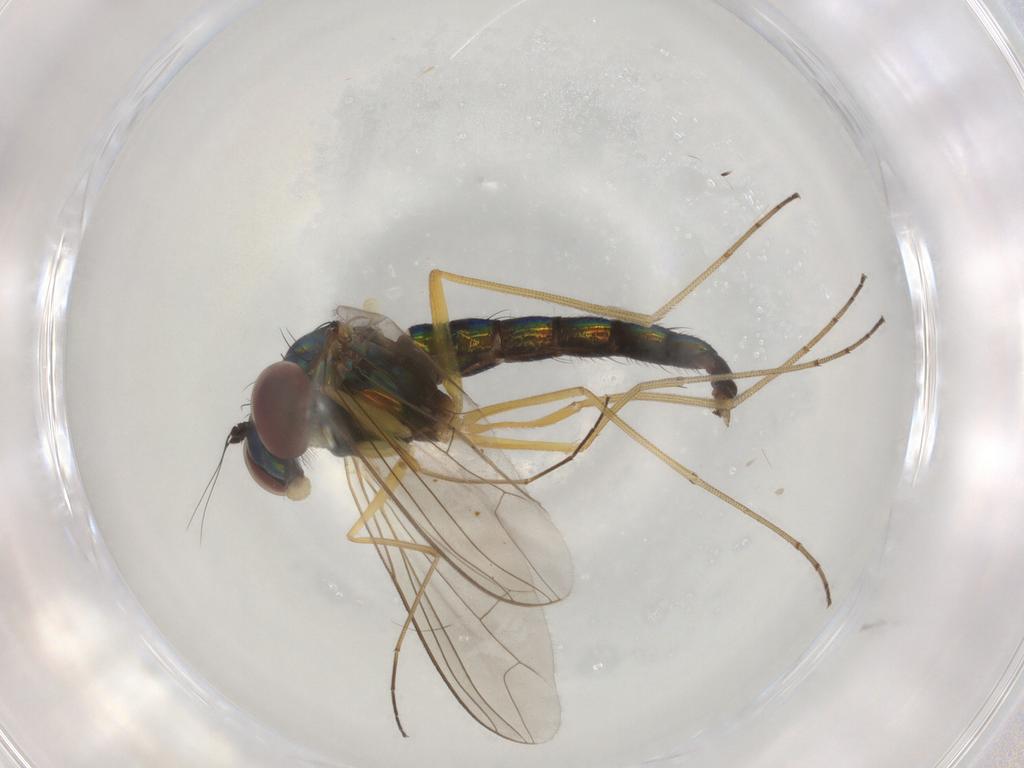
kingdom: Animalia
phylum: Arthropoda
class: Insecta
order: Diptera
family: Dolichopodidae
